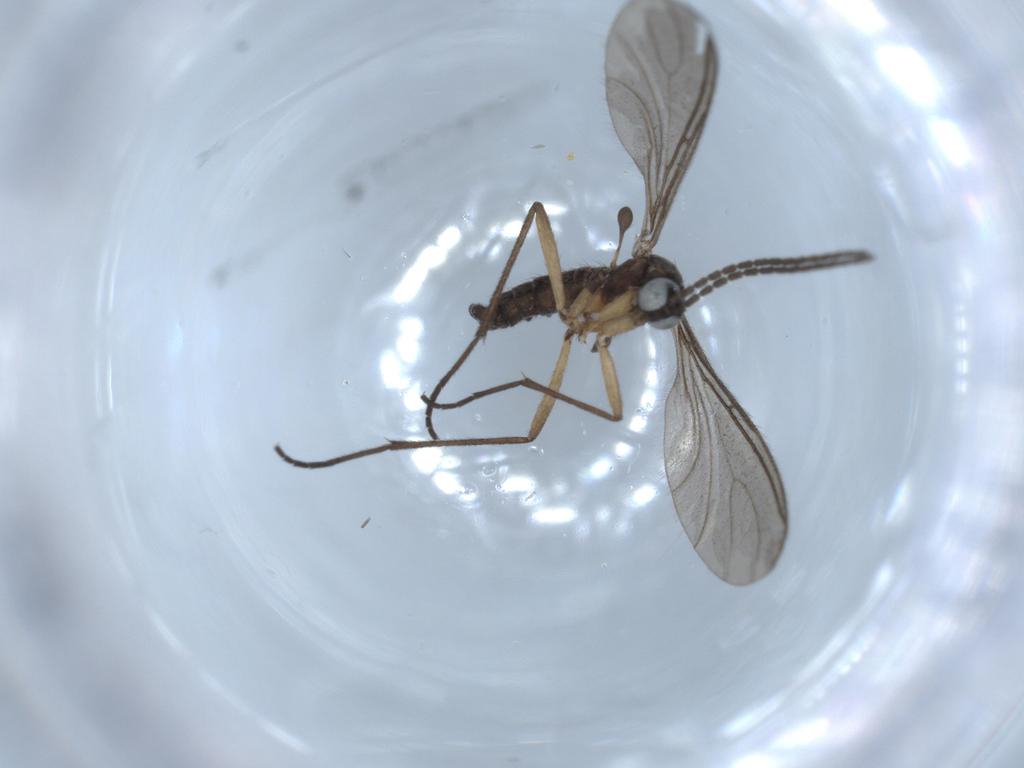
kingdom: Animalia
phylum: Arthropoda
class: Insecta
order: Diptera
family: Sciaridae
